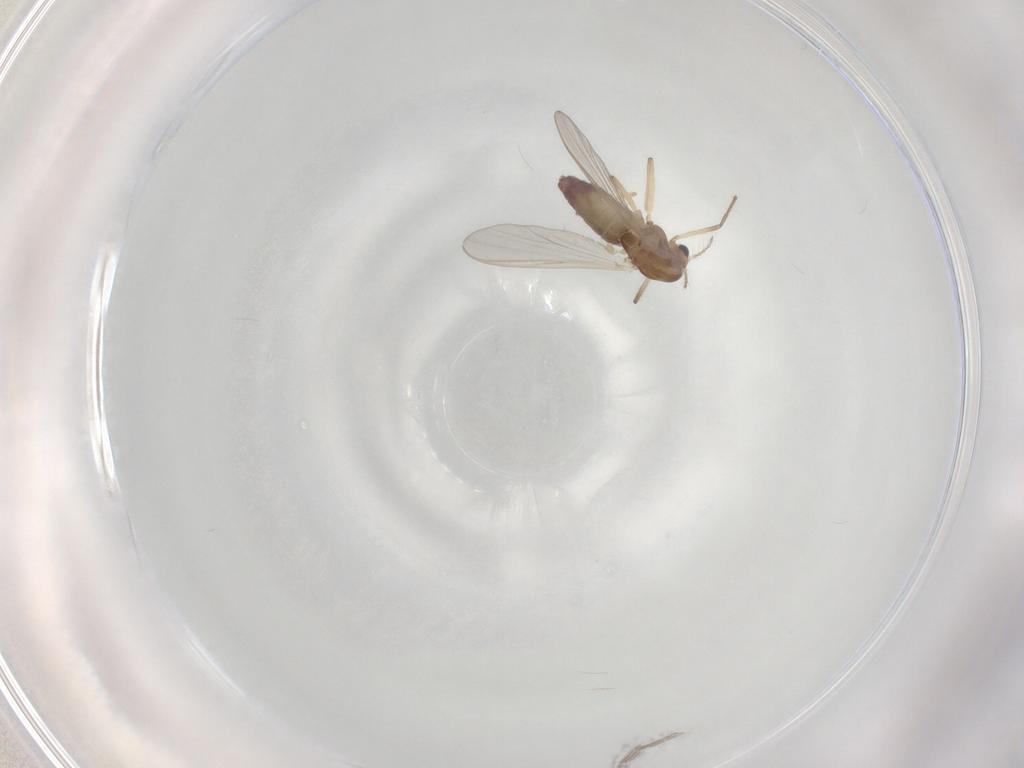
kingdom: Animalia
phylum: Arthropoda
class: Insecta
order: Diptera
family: Chironomidae
